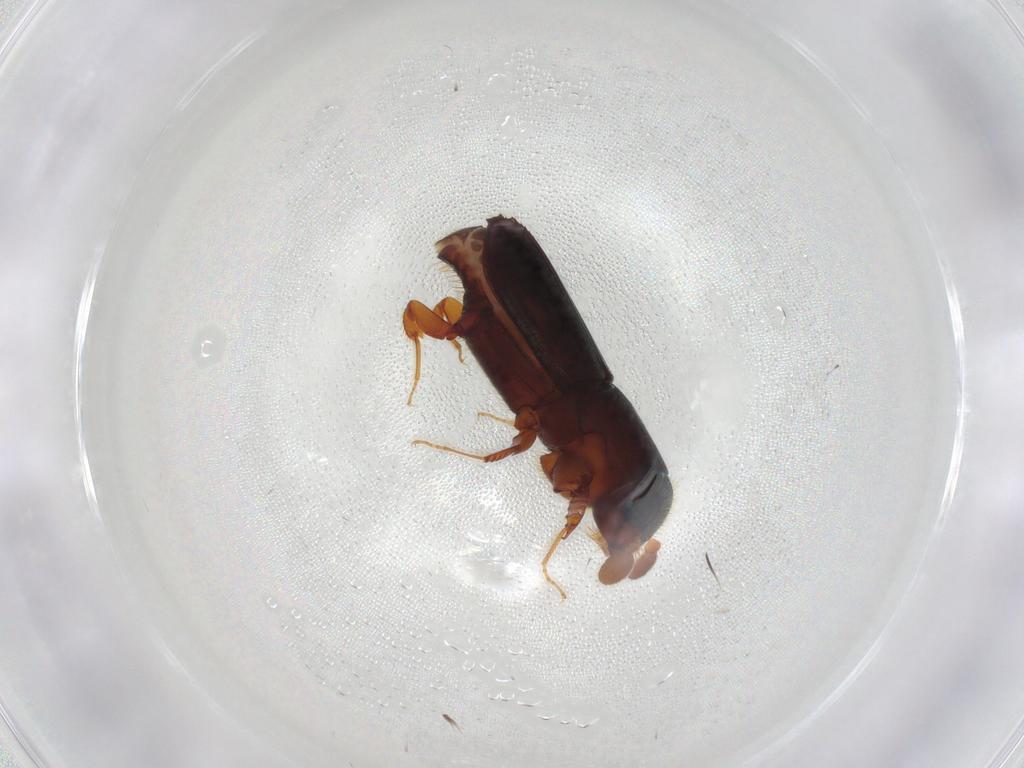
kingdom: Animalia
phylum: Arthropoda
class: Insecta
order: Coleoptera
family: Curculionidae
